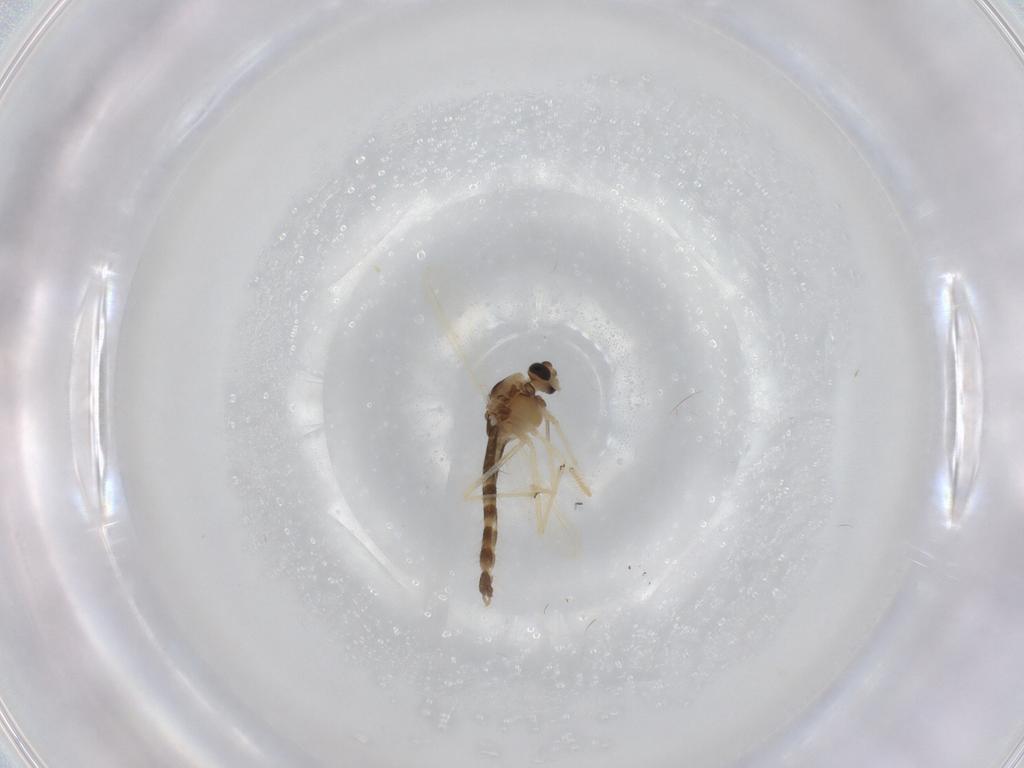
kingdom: Animalia
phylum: Arthropoda
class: Insecta
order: Diptera
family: Chironomidae
